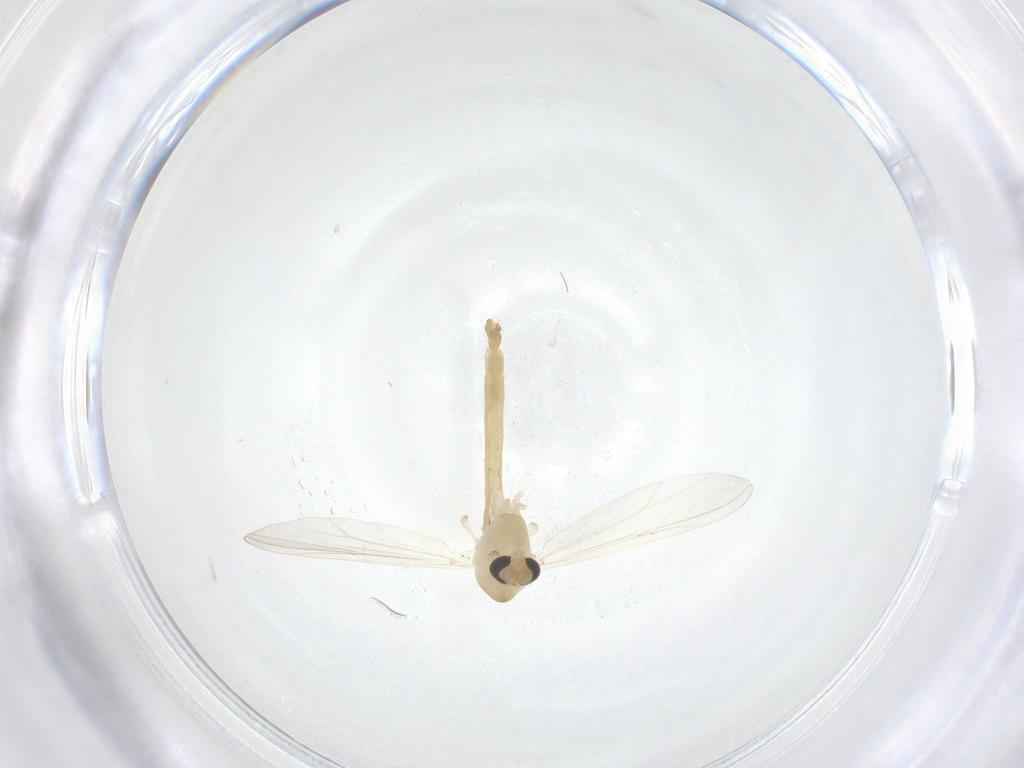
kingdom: Animalia
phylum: Arthropoda
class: Insecta
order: Diptera
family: Chironomidae
